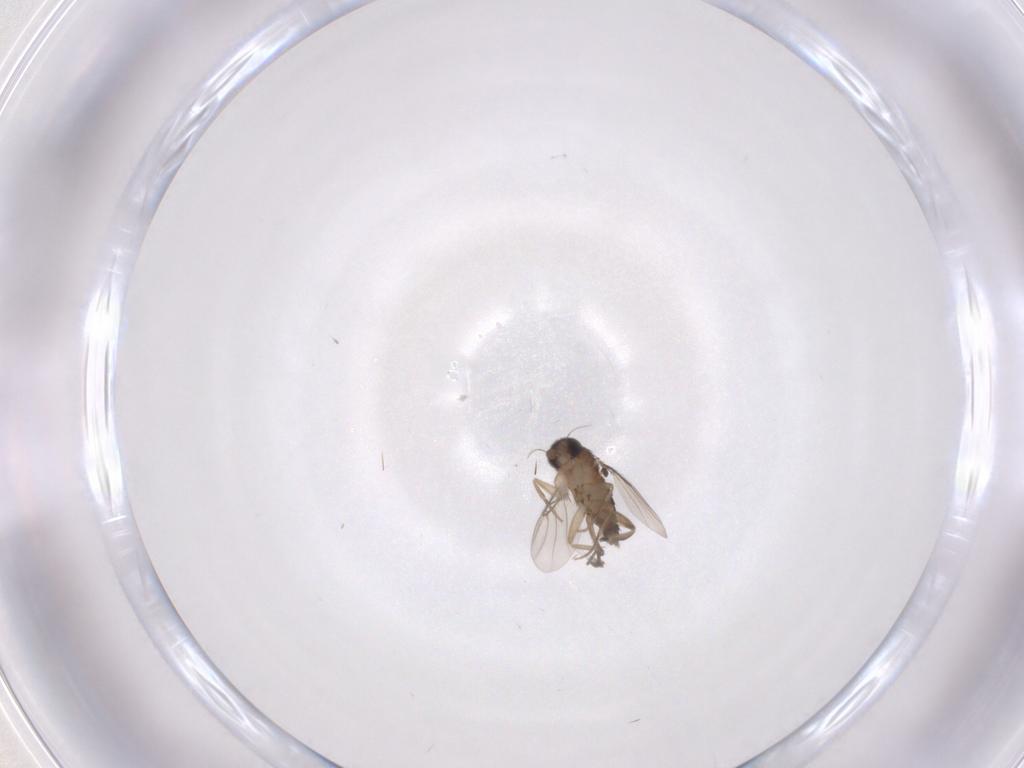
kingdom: Animalia
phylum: Arthropoda
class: Insecta
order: Diptera
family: Phoridae
